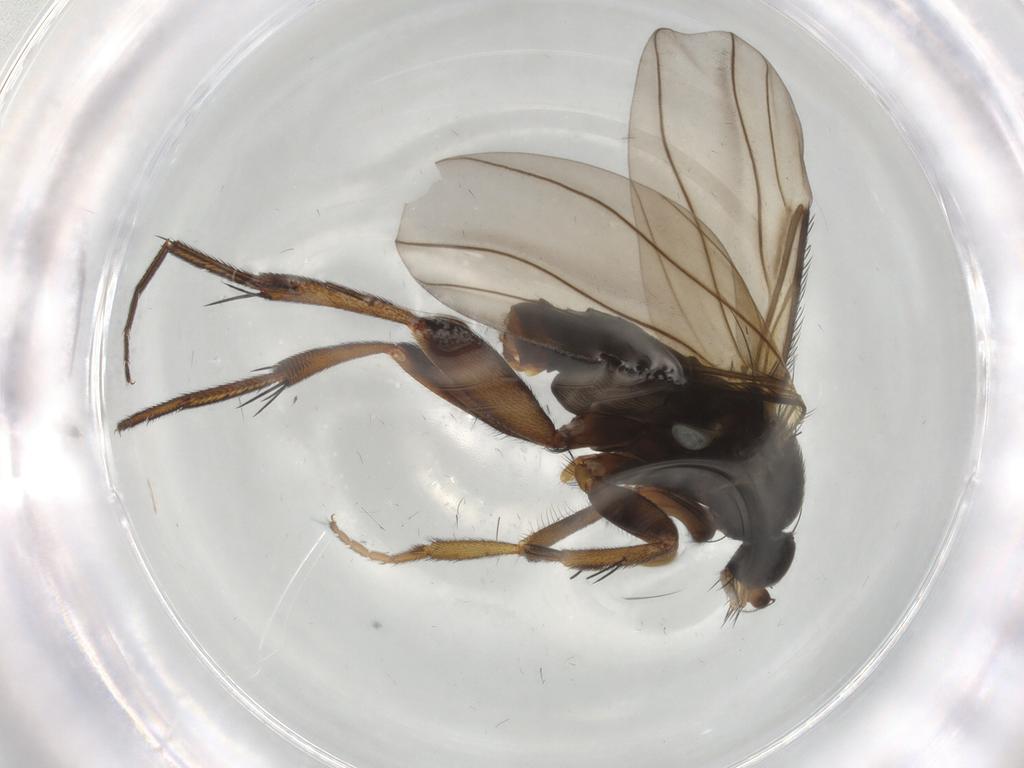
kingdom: Animalia
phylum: Arthropoda
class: Insecta
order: Diptera
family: Phoridae
